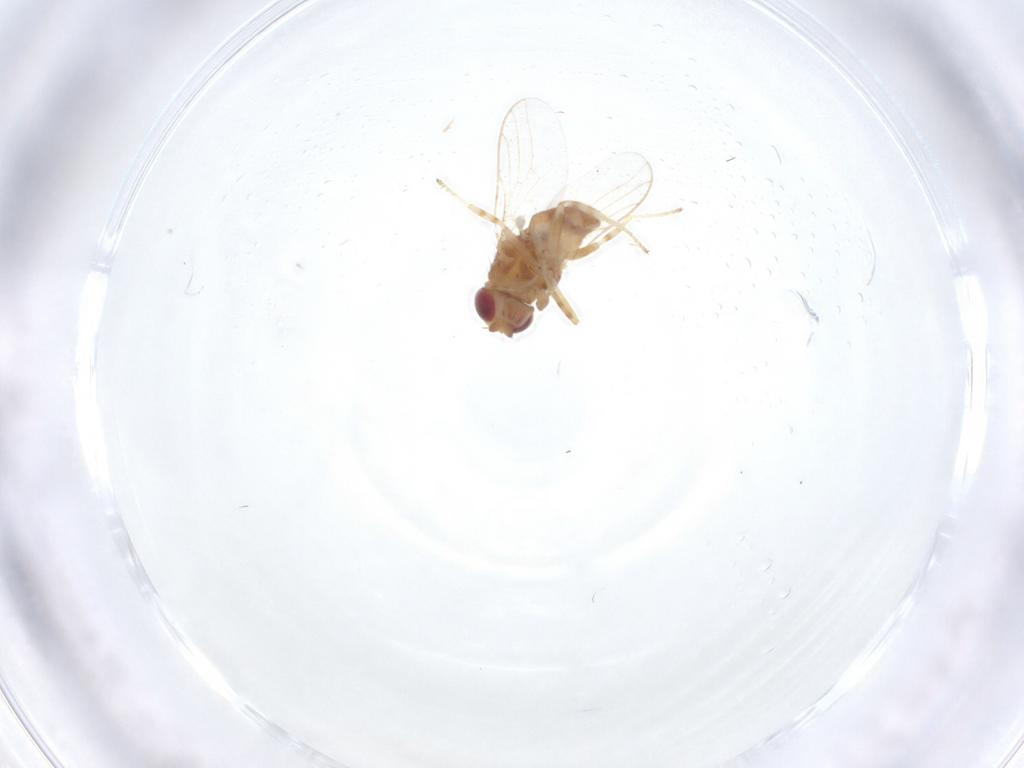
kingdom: Animalia
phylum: Arthropoda
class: Insecta
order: Diptera
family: Chloropidae
